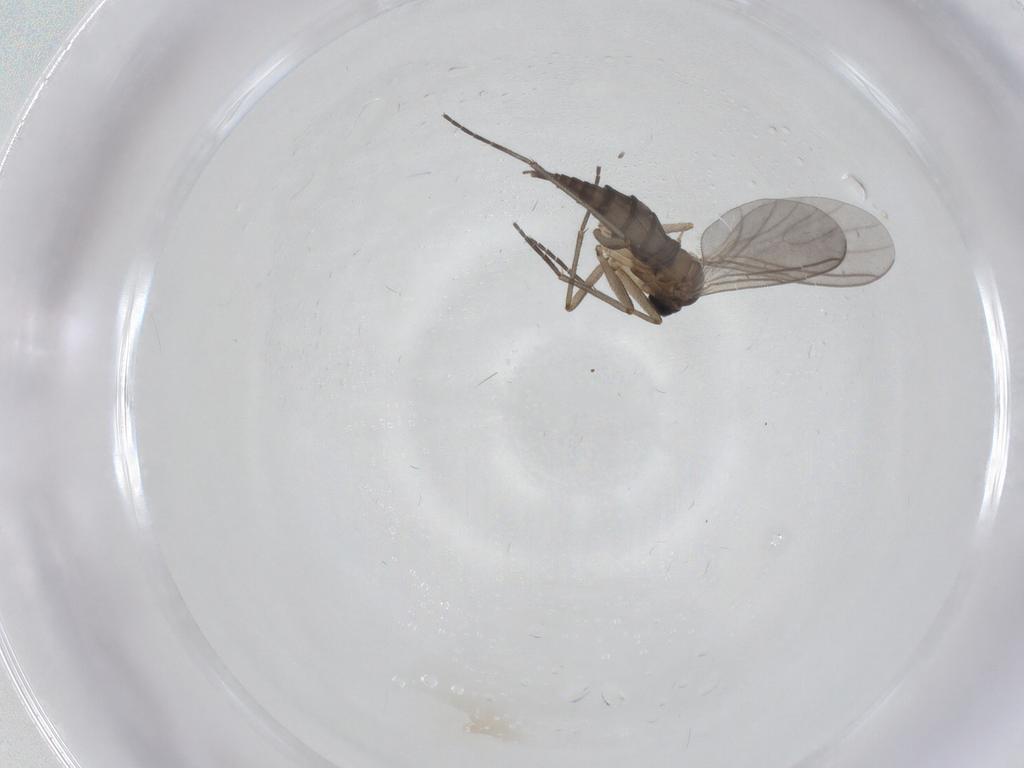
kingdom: Animalia
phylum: Arthropoda
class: Insecta
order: Diptera
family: Sciaridae
